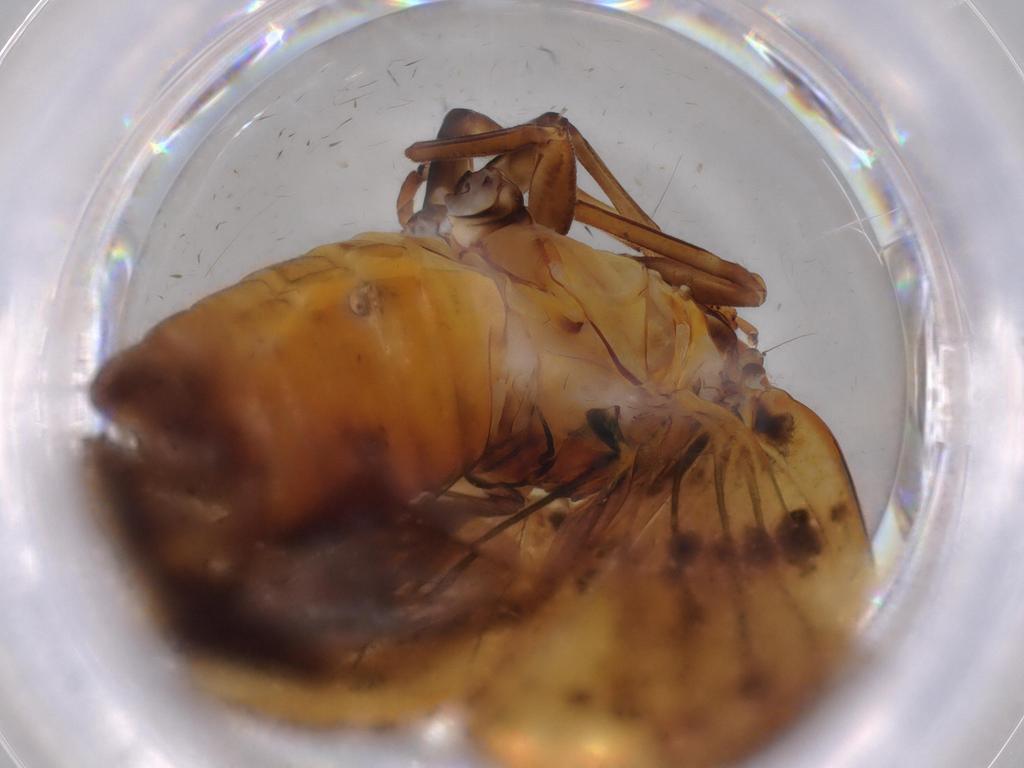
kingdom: Animalia
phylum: Arthropoda
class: Insecta
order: Hemiptera
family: Issidae
